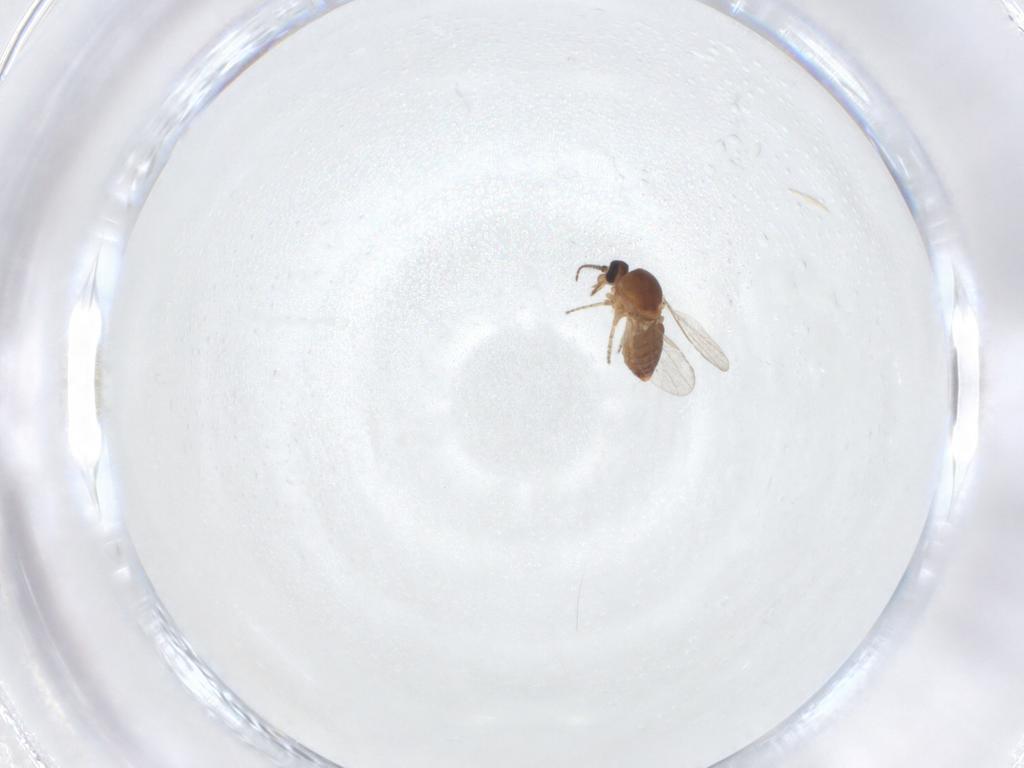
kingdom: Animalia
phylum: Arthropoda
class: Insecta
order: Diptera
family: Ceratopogonidae
